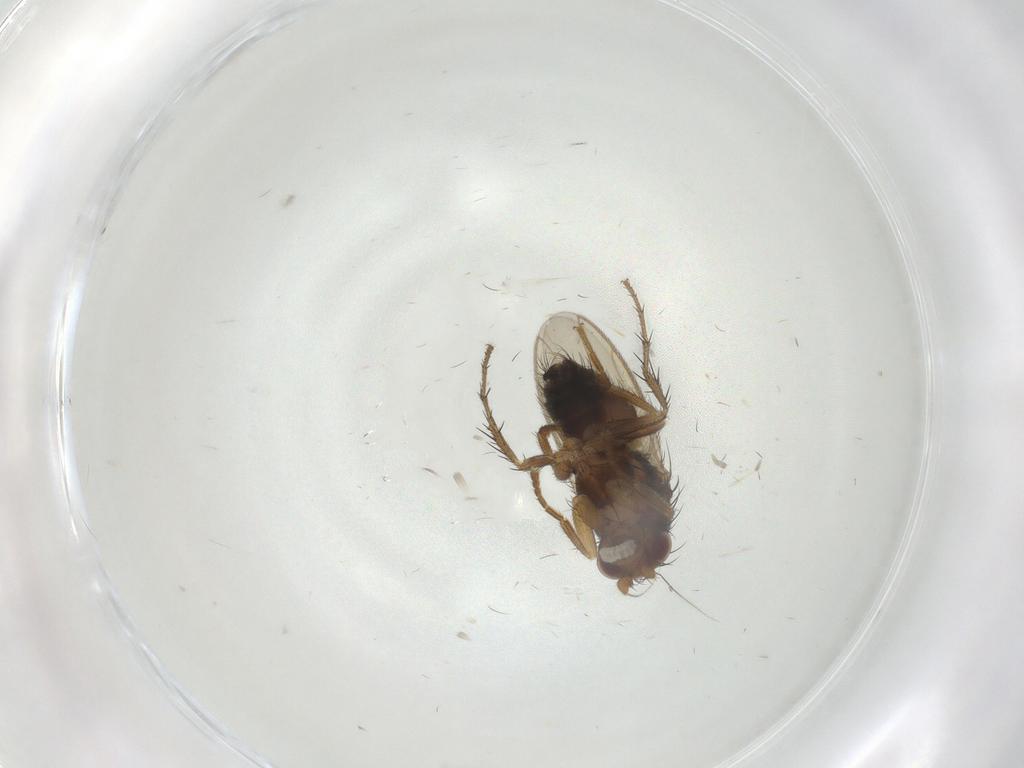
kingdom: Animalia
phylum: Arthropoda
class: Insecta
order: Diptera
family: Sphaeroceridae
